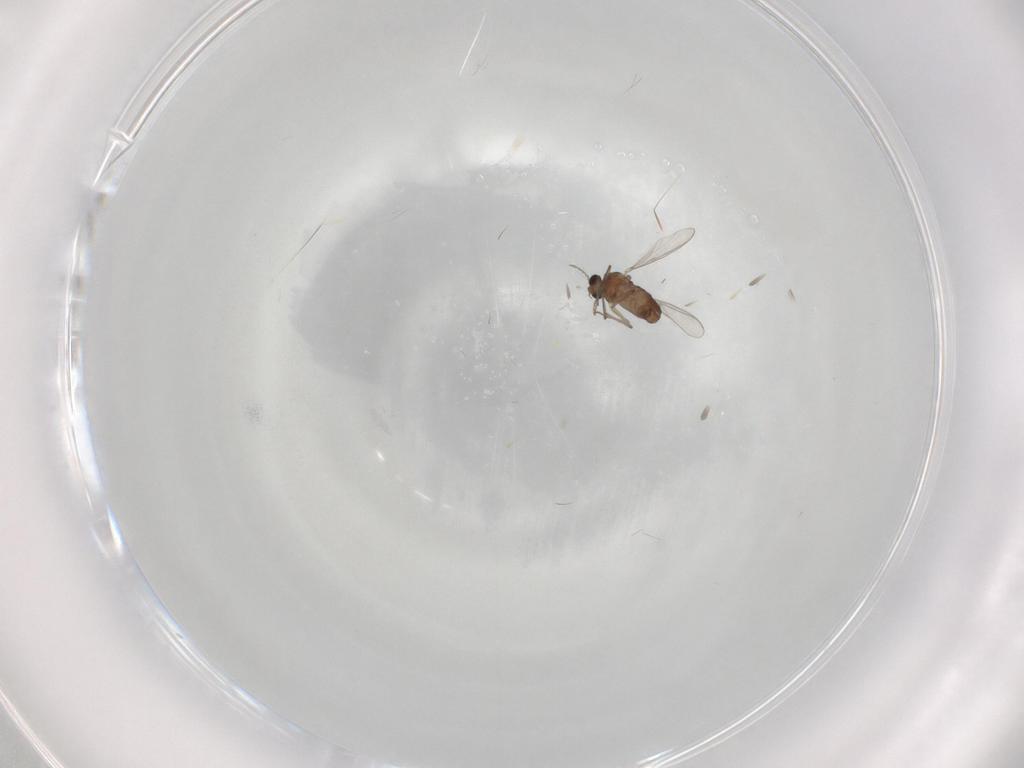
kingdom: Animalia
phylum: Arthropoda
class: Insecta
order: Diptera
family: Chironomidae
